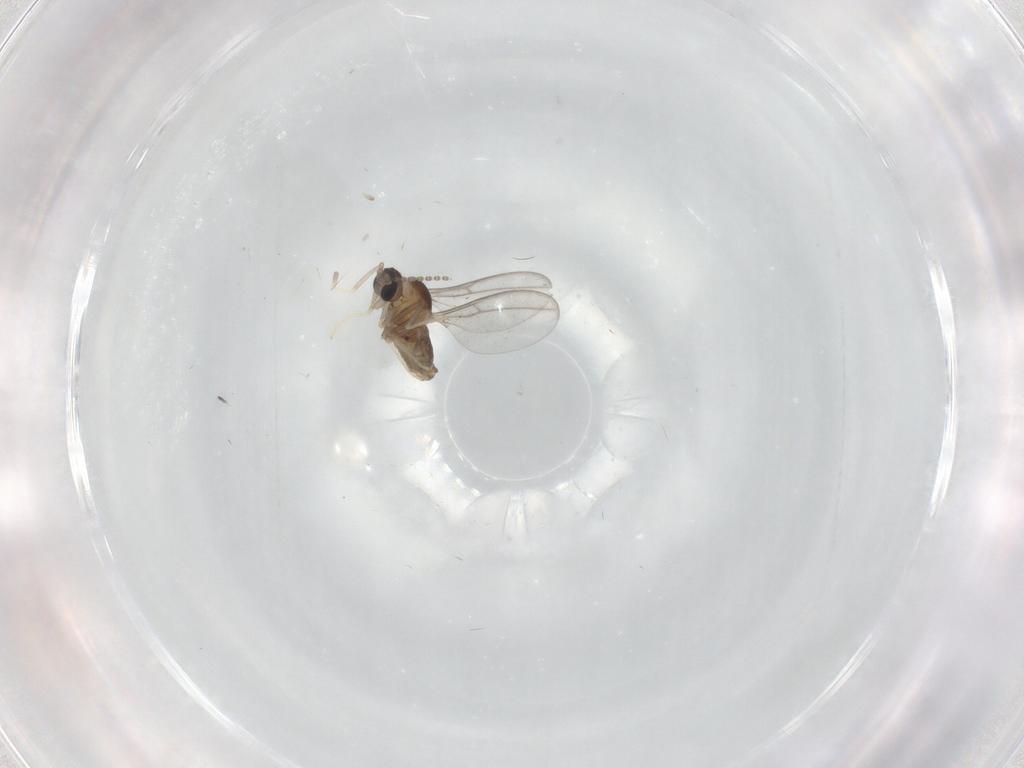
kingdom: Animalia
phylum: Arthropoda
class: Insecta
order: Diptera
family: Cecidomyiidae
